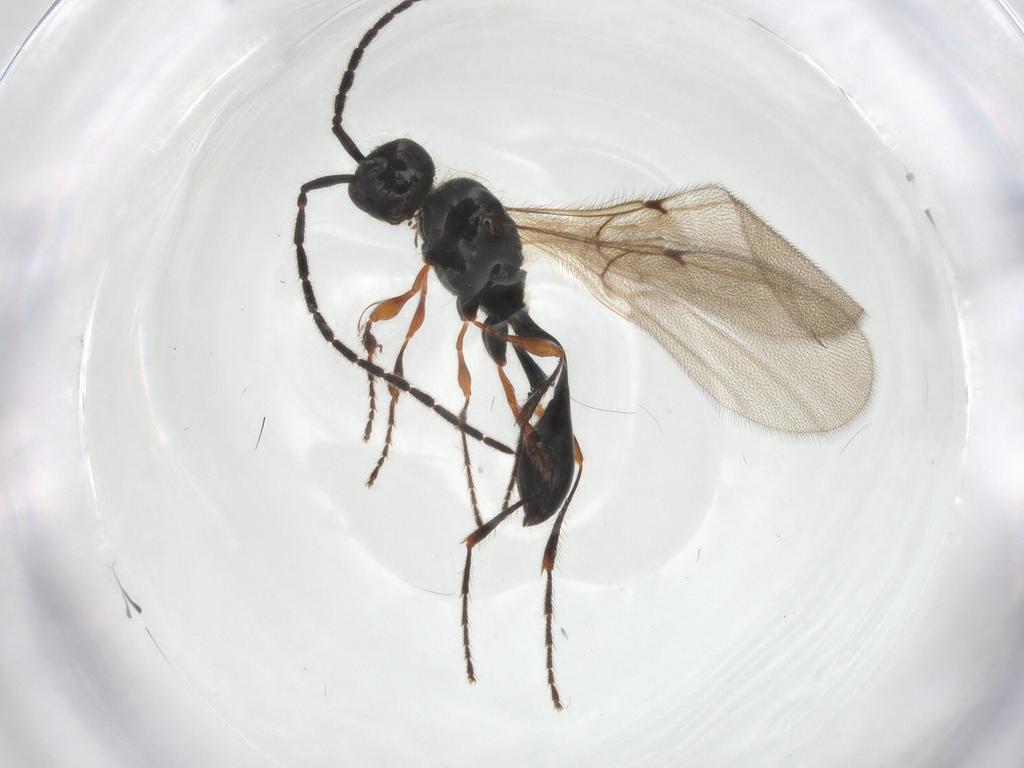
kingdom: Animalia
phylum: Arthropoda
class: Insecta
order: Hymenoptera
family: Diapriidae
